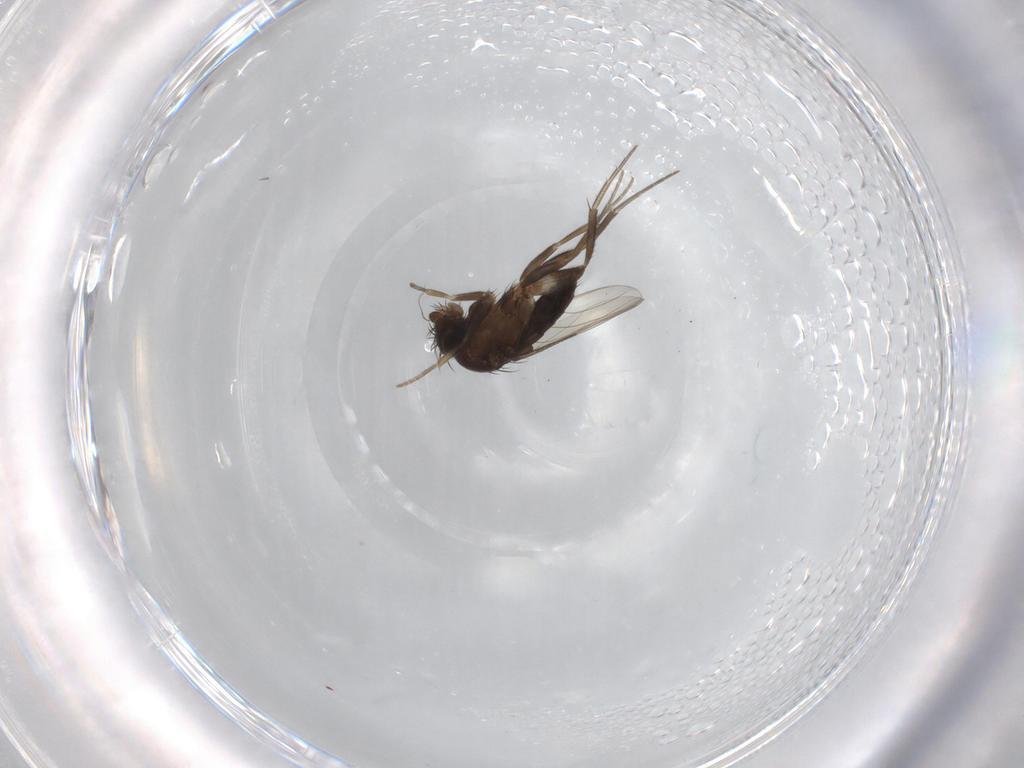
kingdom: Animalia
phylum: Arthropoda
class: Insecta
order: Diptera
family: Phoridae
